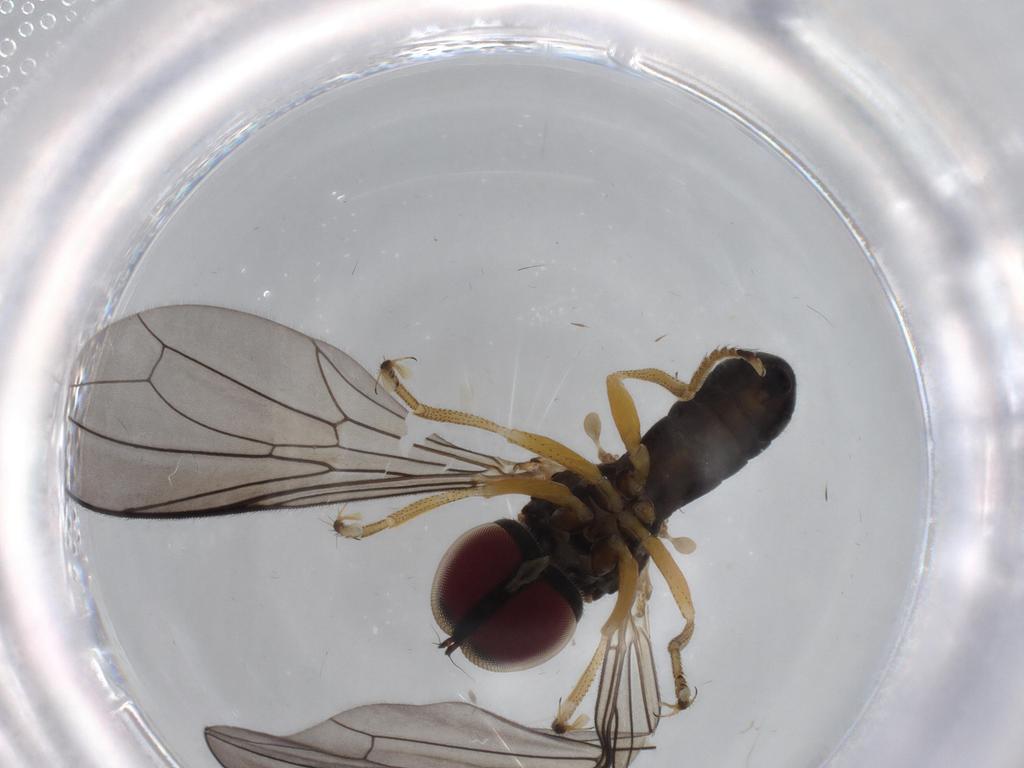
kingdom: Animalia
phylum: Arthropoda
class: Insecta
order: Diptera
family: Pipunculidae
